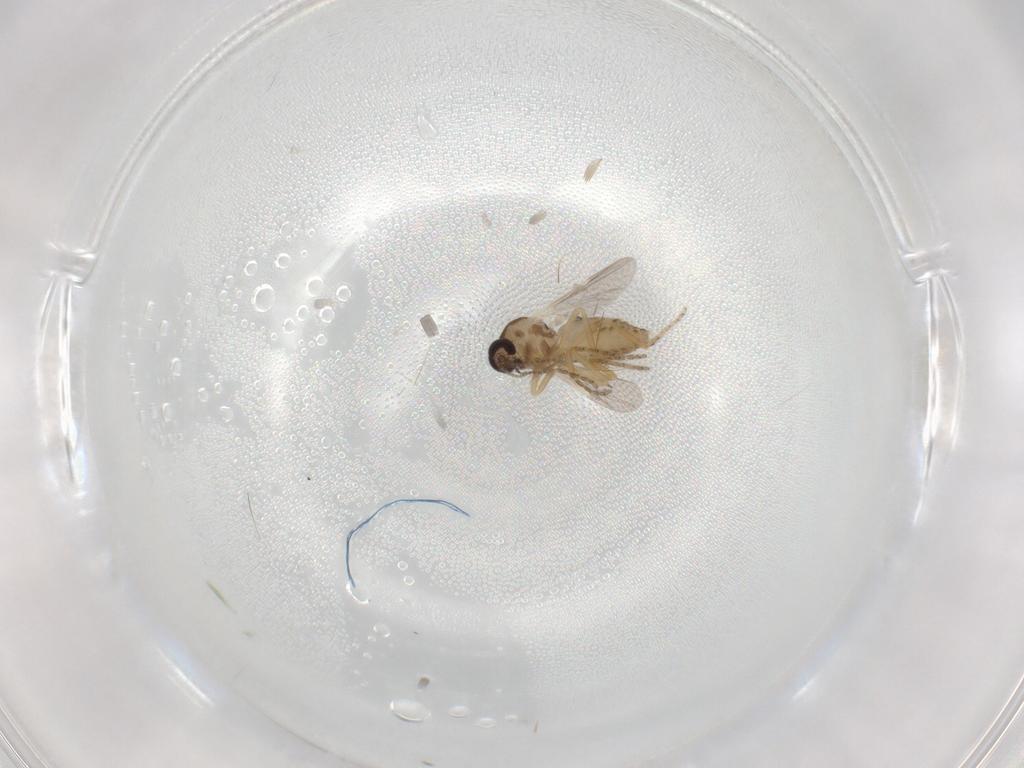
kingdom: Animalia
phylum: Arthropoda
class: Insecta
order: Diptera
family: Ceratopogonidae
